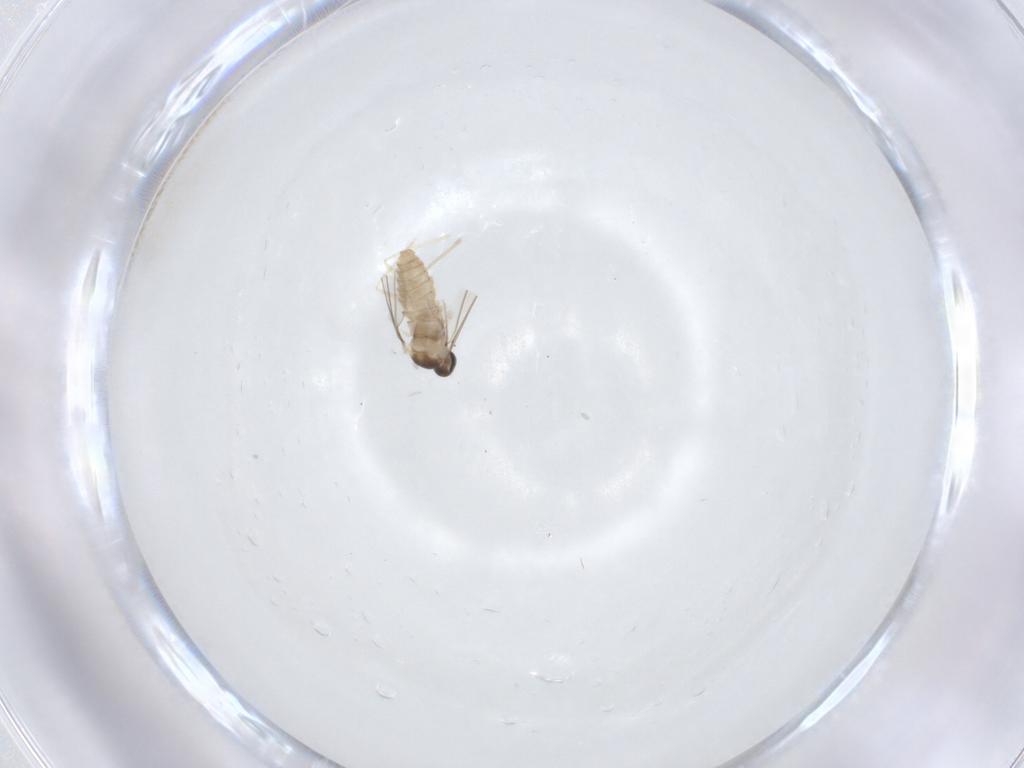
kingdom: Animalia
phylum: Arthropoda
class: Insecta
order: Diptera
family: Cecidomyiidae
